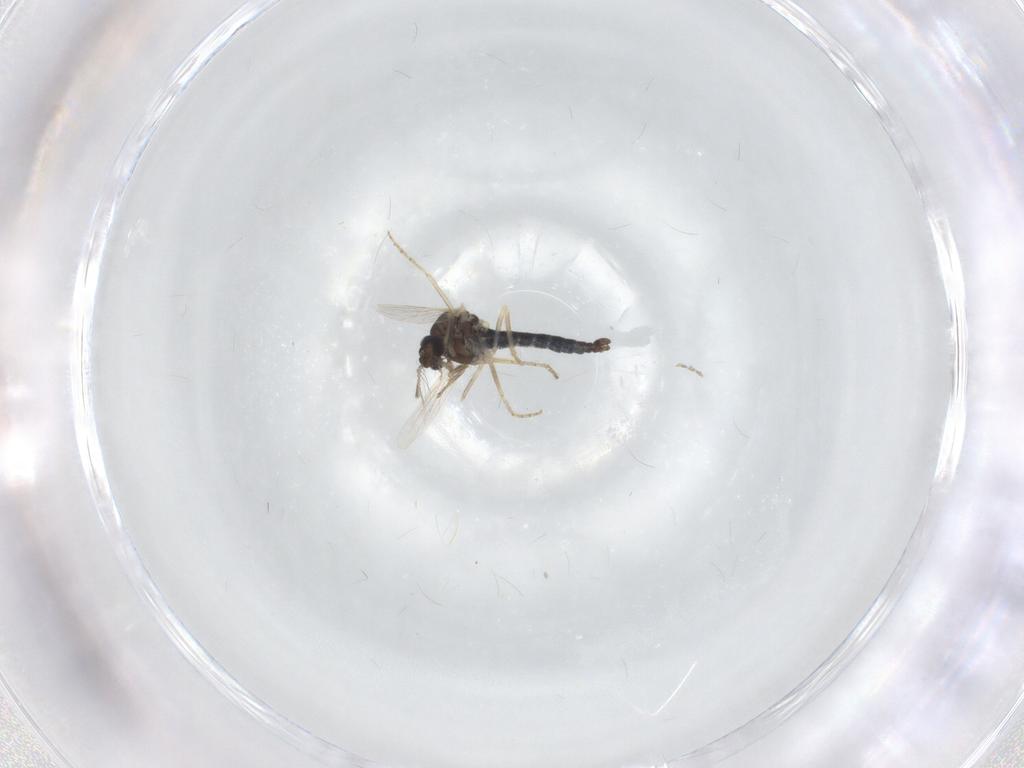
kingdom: Animalia
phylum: Arthropoda
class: Insecta
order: Diptera
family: Ceratopogonidae
